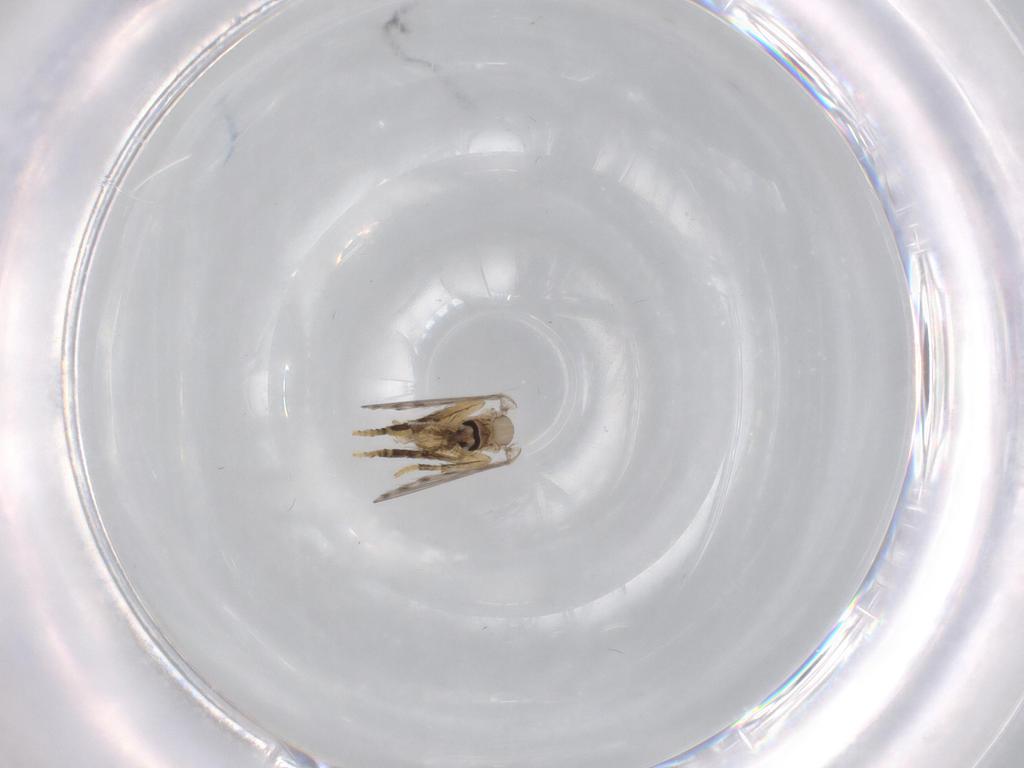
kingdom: Animalia
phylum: Arthropoda
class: Insecta
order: Diptera
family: Psychodidae
